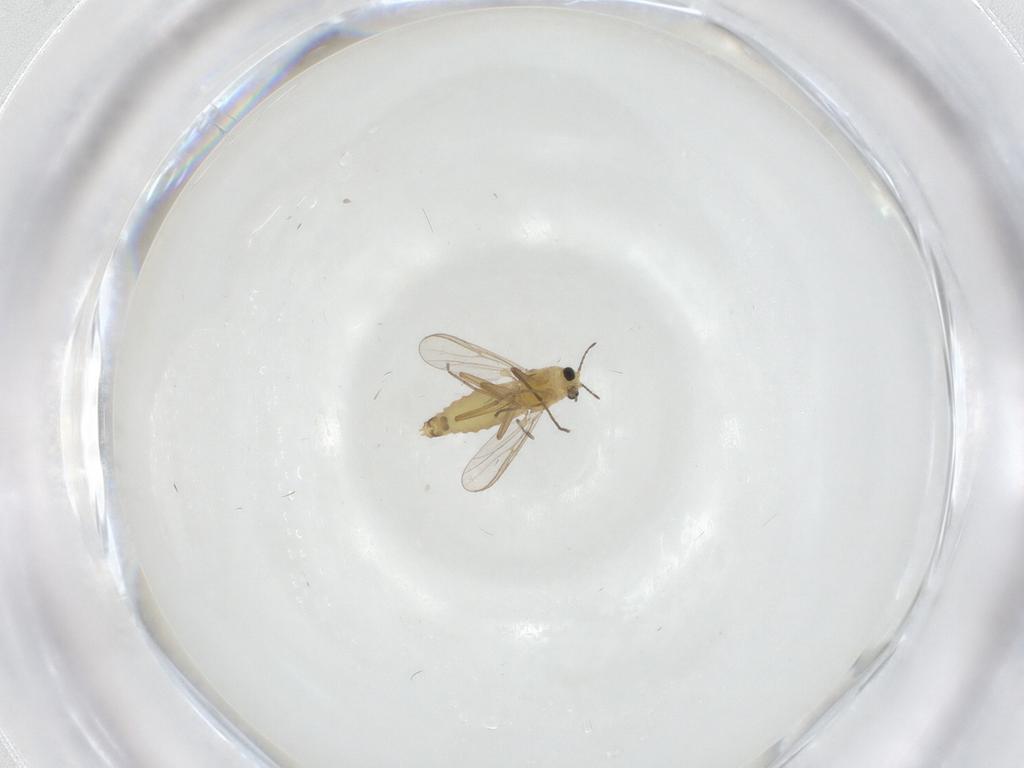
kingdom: Animalia
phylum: Arthropoda
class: Insecta
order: Diptera
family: Chironomidae
